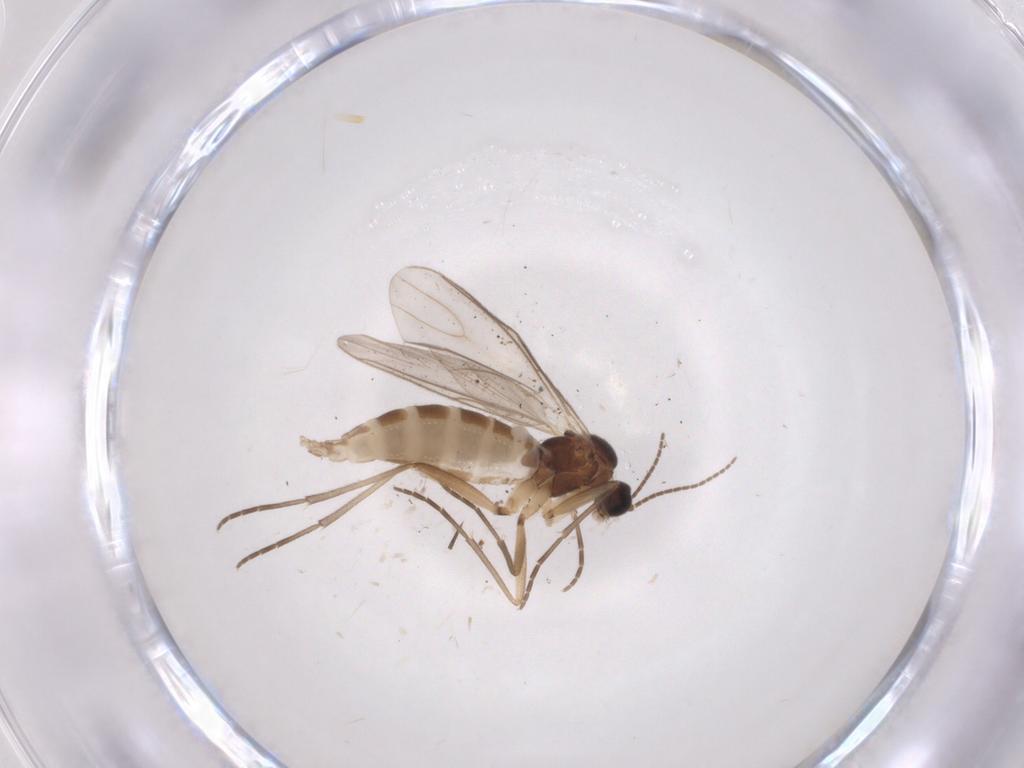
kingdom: Animalia
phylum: Arthropoda
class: Insecta
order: Diptera
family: Sciaridae
